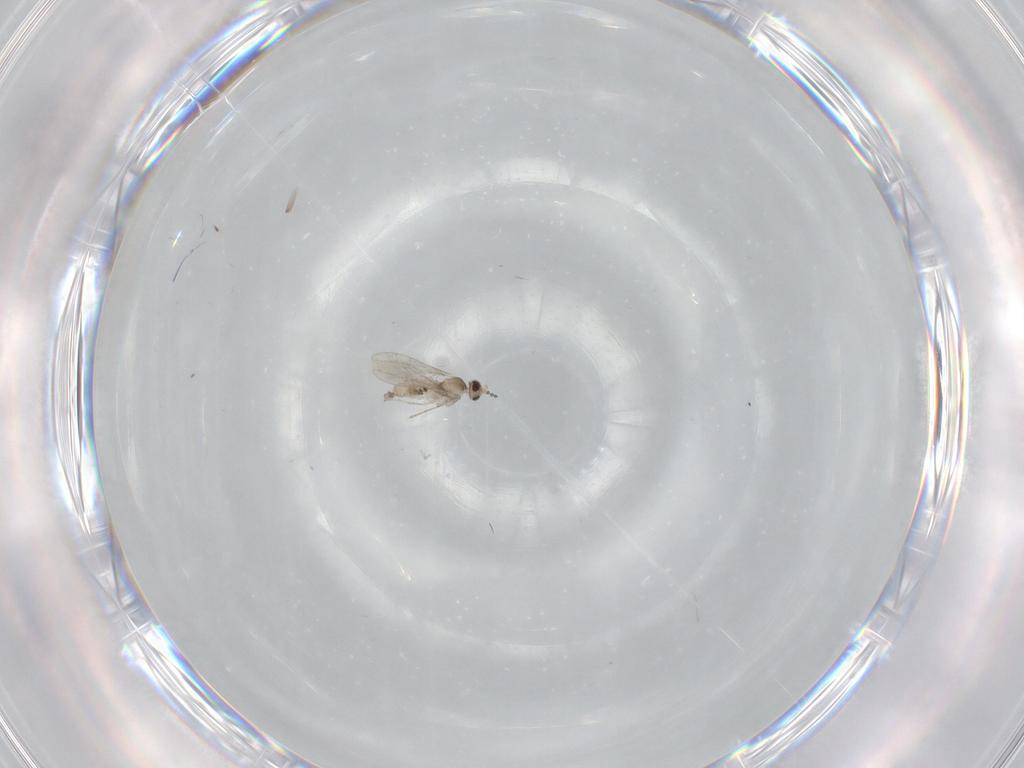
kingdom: Animalia
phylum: Arthropoda
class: Insecta
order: Diptera
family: Cecidomyiidae
